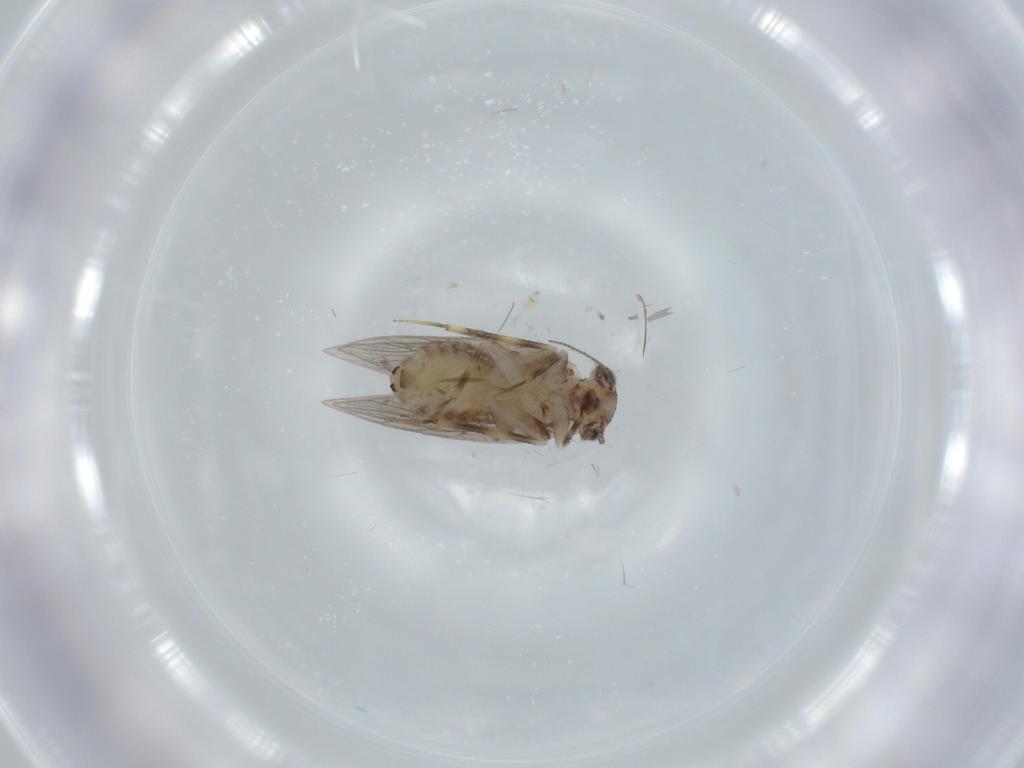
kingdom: Animalia
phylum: Arthropoda
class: Insecta
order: Psocodea
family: Lepidopsocidae
